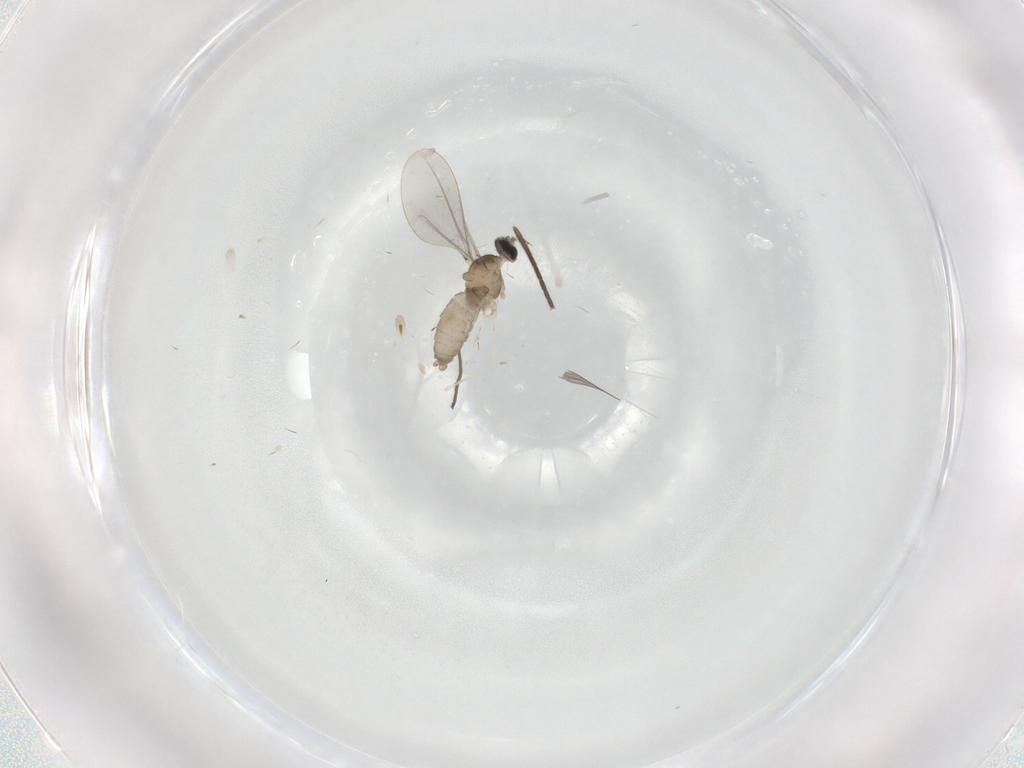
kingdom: Animalia
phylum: Arthropoda
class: Insecta
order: Diptera
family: Limoniidae
